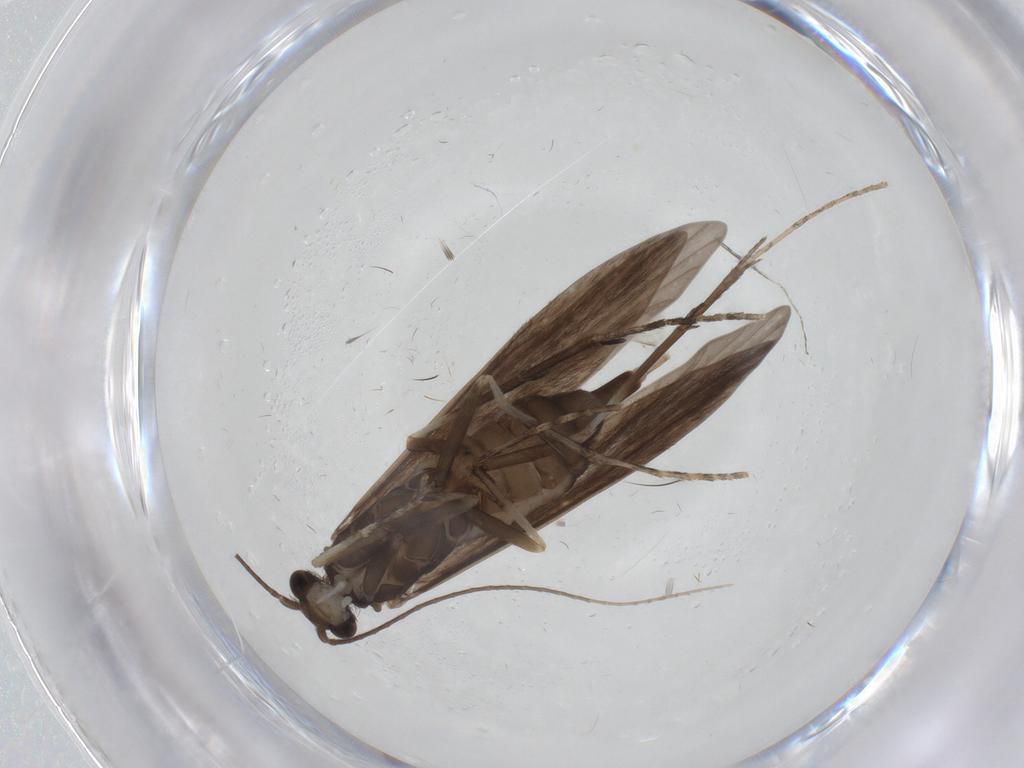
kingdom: Animalia
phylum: Arthropoda
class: Insecta
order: Trichoptera
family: Xiphocentronidae
